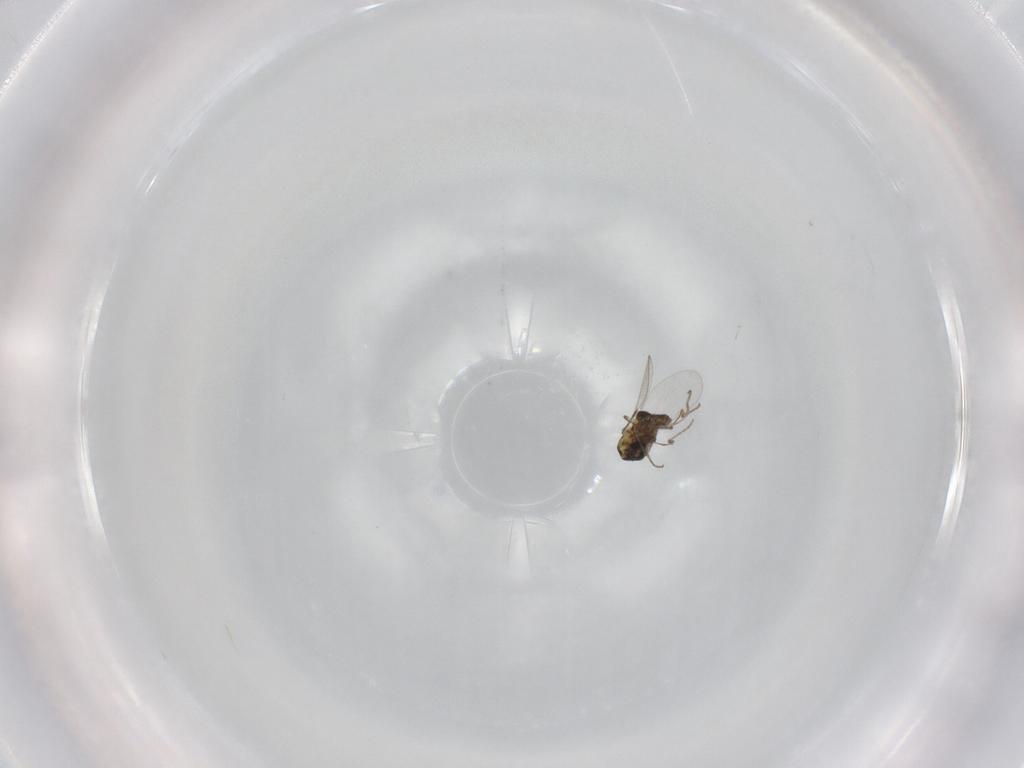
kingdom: Animalia
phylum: Arthropoda
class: Insecta
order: Diptera
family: Ceratopogonidae
